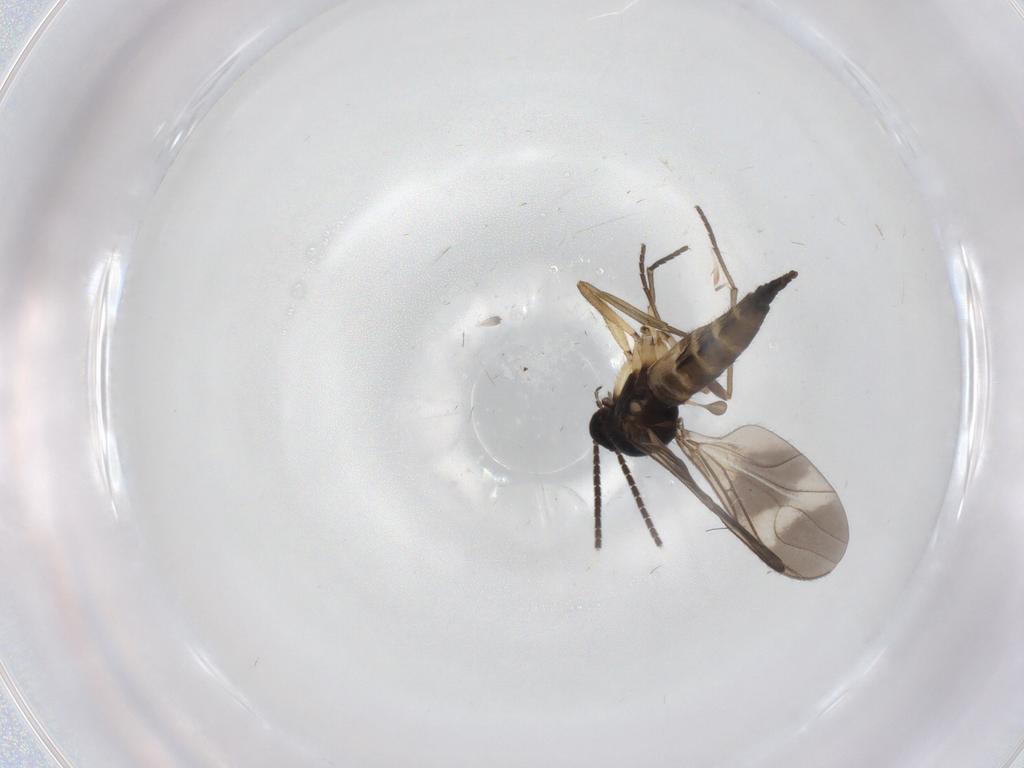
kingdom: Animalia
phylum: Arthropoda
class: Insecta
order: Diptera
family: Sciaridae
